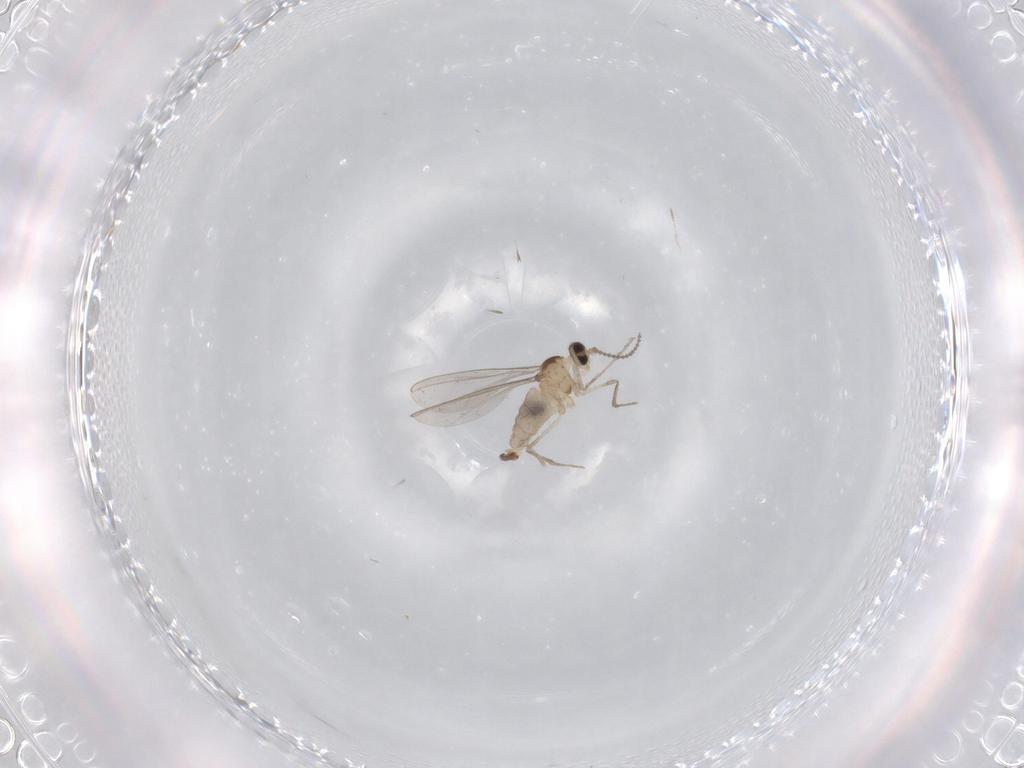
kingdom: Animalia
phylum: Arthropoda
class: Insecta
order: Diptera
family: Cecidomyiidae
